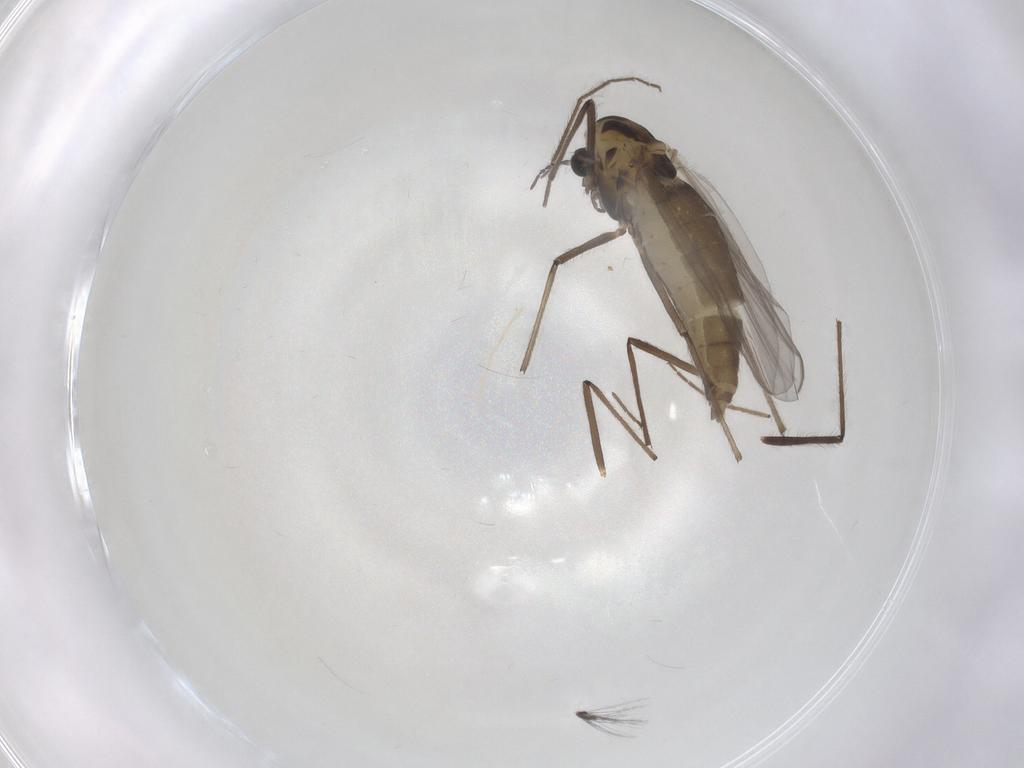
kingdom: Animalia
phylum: Arthropoda
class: Insecta
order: Diptera
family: Chironomidae
